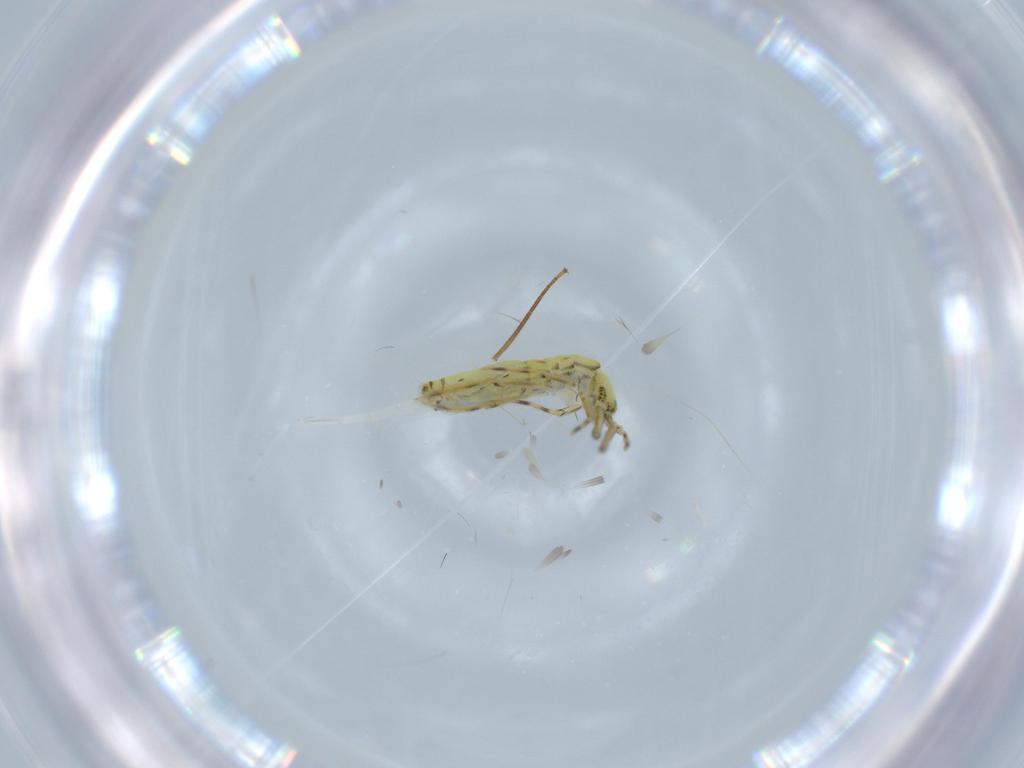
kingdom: Animalia
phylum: Arthropoda
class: Collembola
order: Entomobryomorpha
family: Paronellidae
